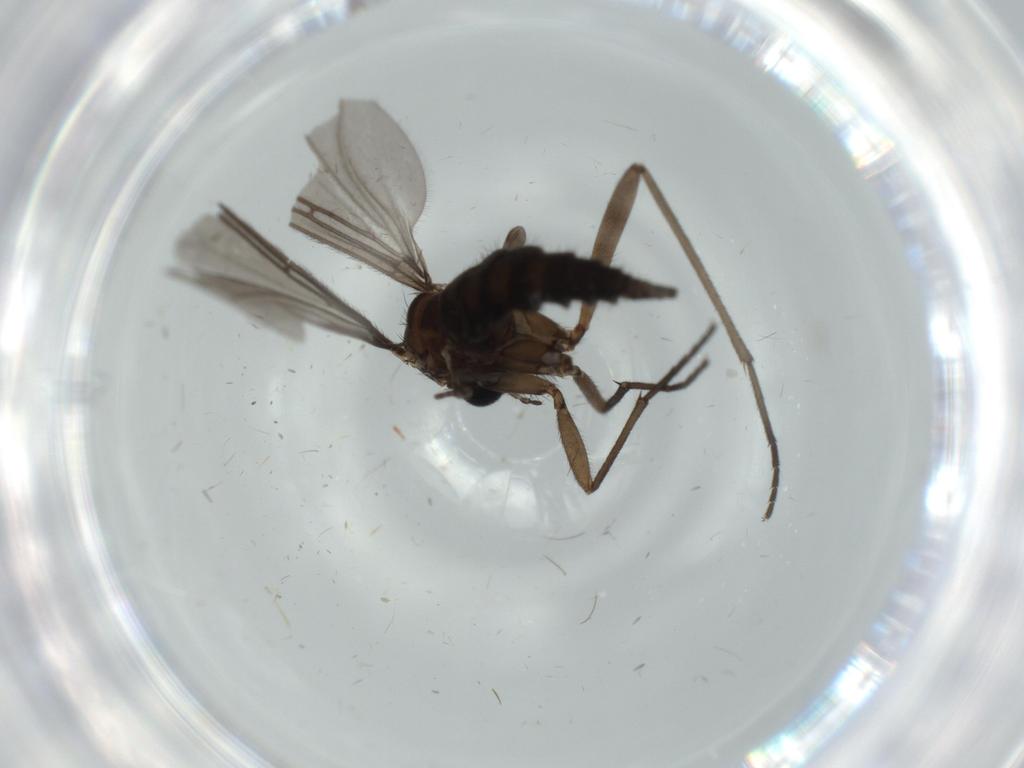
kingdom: Animalia
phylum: Arthropoda
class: Insecta
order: Diptera
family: Sciaridae
